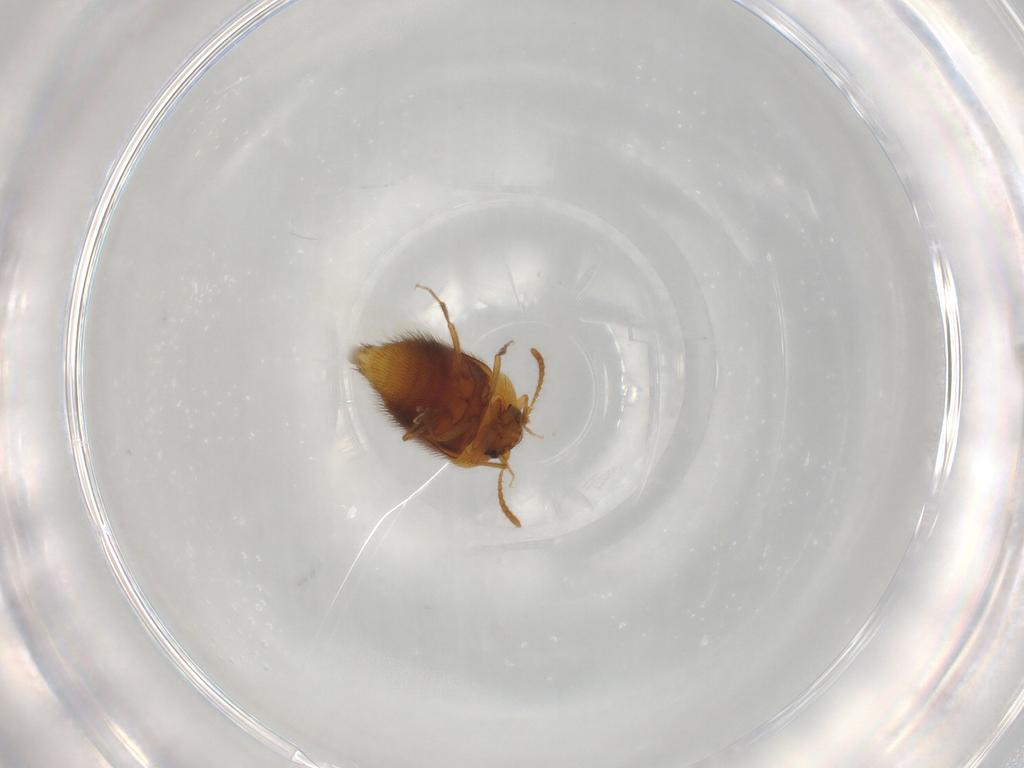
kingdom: Animalia
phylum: Arthropoda
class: Insecta
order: Coleoptera
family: Staphylinidae
